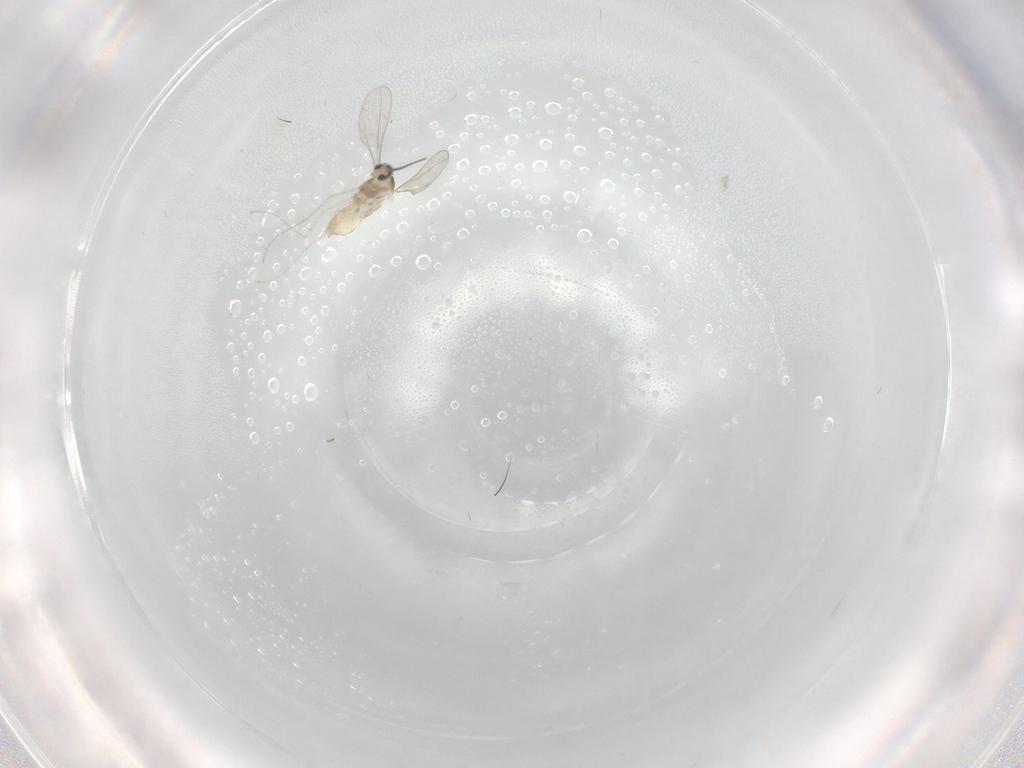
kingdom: Animalia
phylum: Arthropoda
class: Insecta
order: Diptera
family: Cecidomyiidae
